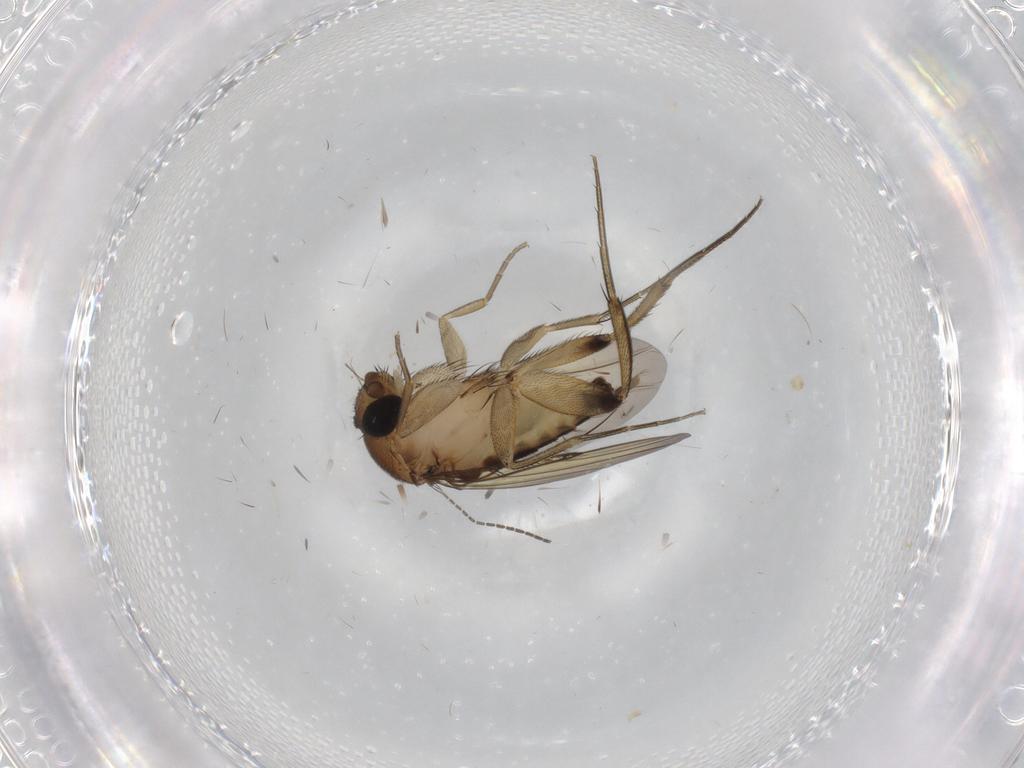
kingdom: Animalia
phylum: Arthropoda
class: Insecta
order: Diptera
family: Phoridae
